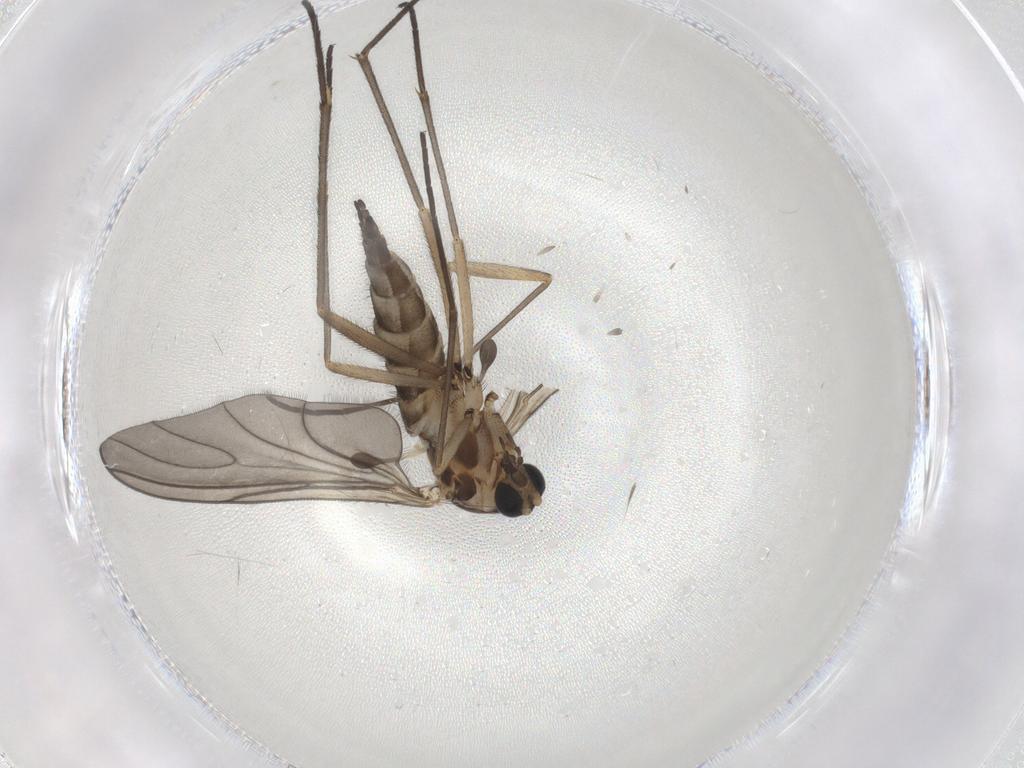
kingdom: Animalia
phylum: Arthropoda
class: Insecta
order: Diptera
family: Sciaridae
